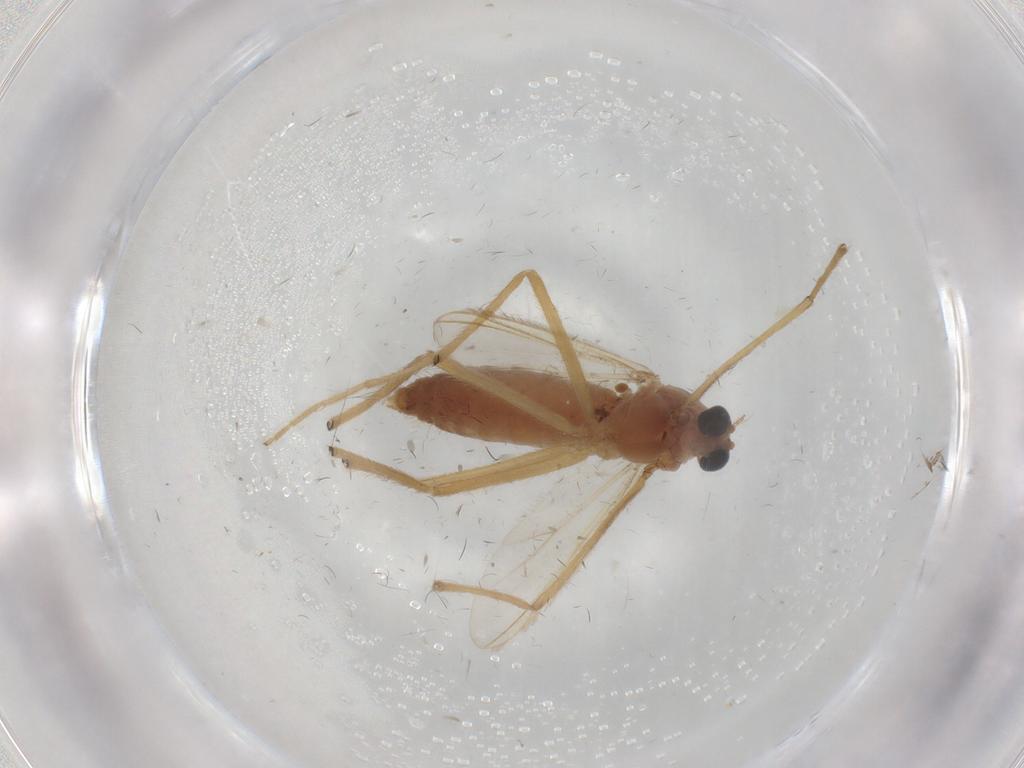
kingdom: Animalia
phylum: Arthropoda
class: Insecta
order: Diptera
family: Chironomidae
